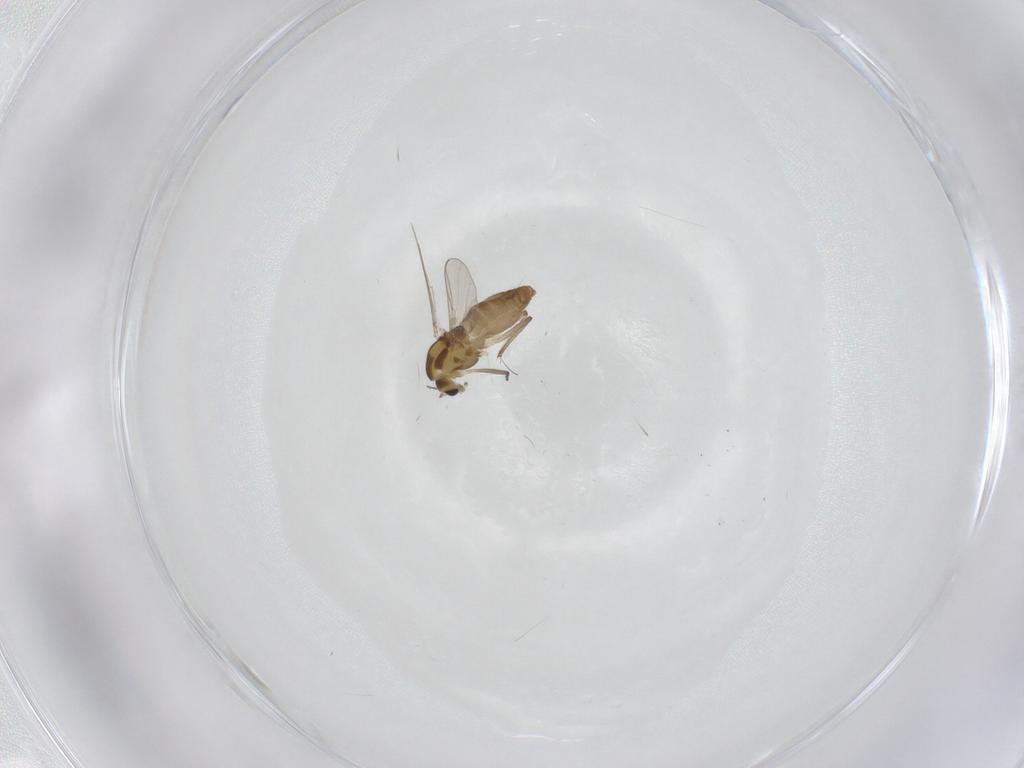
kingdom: Animalia
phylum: Arthropoda
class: Insecta
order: Diptera
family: Chironomidae
